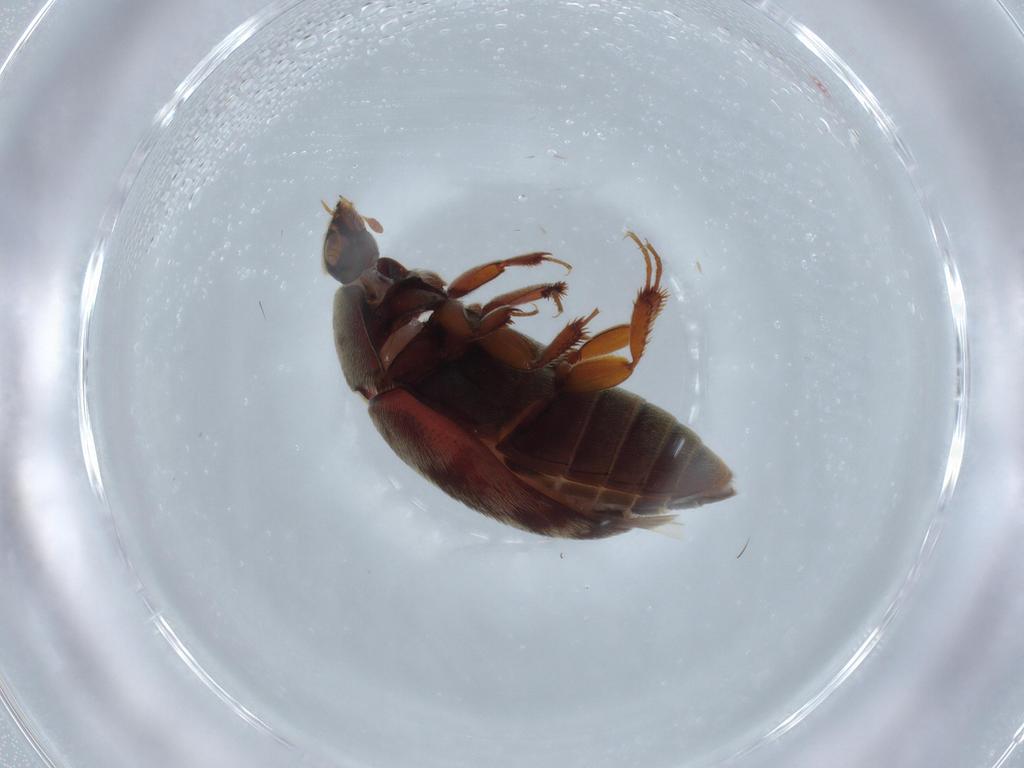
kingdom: Animalia
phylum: Arthropoda
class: Insecta
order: Coleoptera
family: Dermestidae
